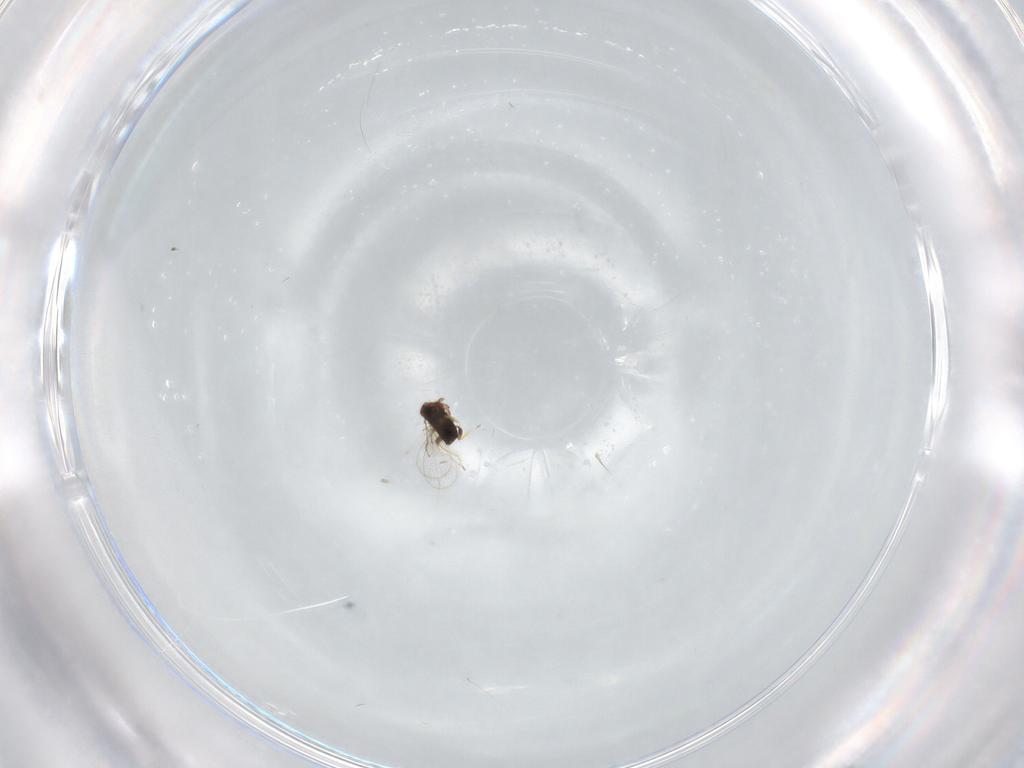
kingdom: Animalia
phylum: Arthropoda
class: Insecta
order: Hymenoptera
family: Trichogrammatidae
